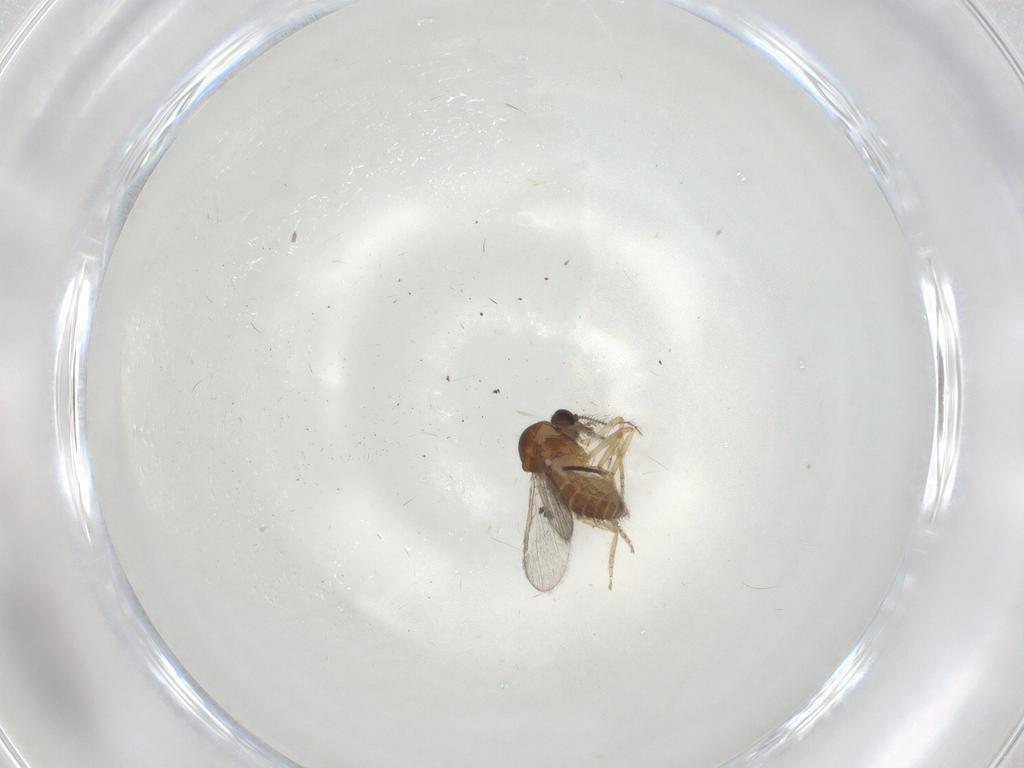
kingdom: Animalia
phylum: Arthropoda
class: Insecta
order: Diptera
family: Ceratopogonidae
